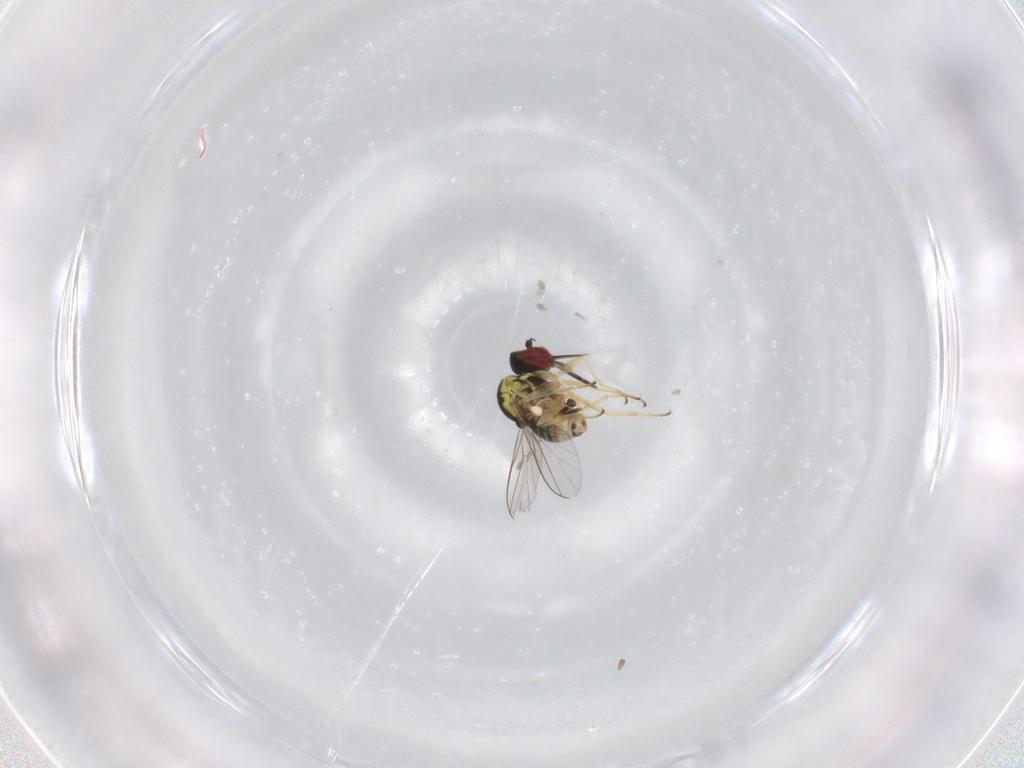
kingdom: Animalia
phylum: Arthropoda
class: Insecta
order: Diptera
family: Bombyliidae
